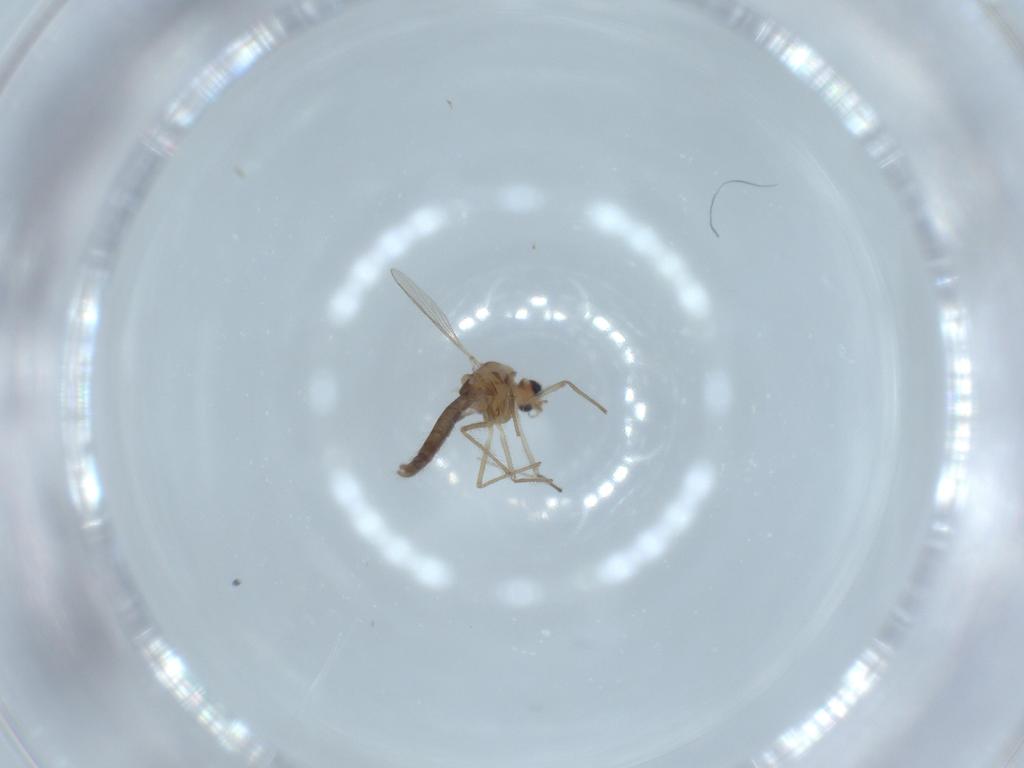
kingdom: Animalia
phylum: Arthropoda
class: Insecta
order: Diptera
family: Chironomidae
